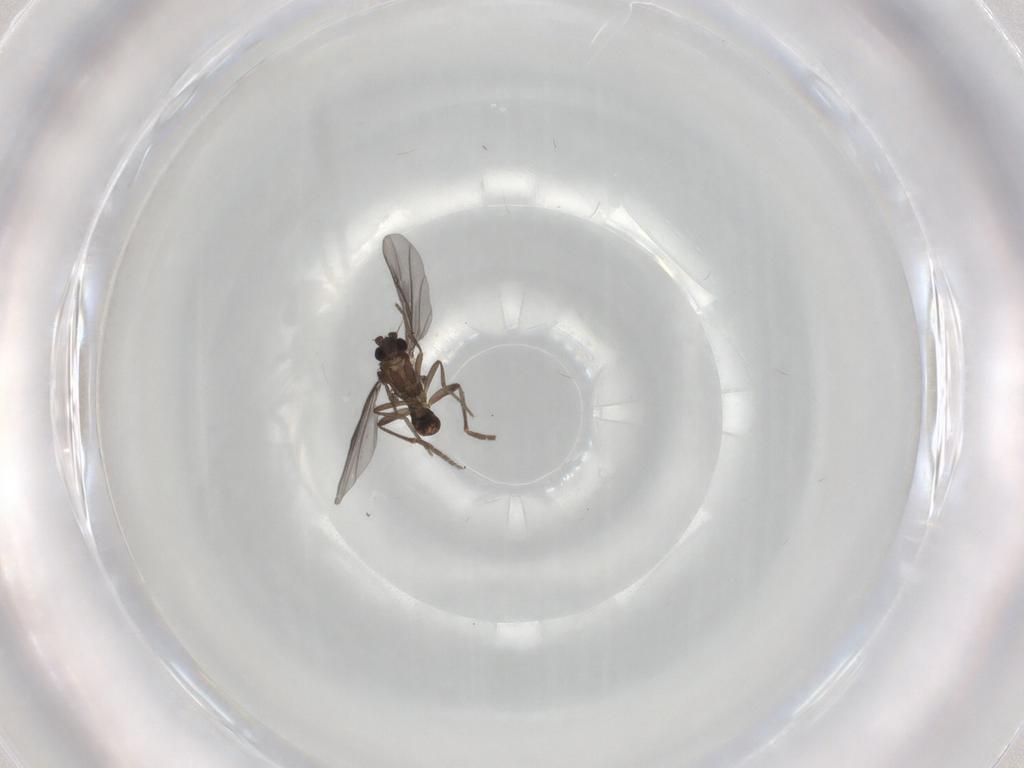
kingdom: Animalia
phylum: Arthropoda
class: Insecta
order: Diptera
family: Phoridae
